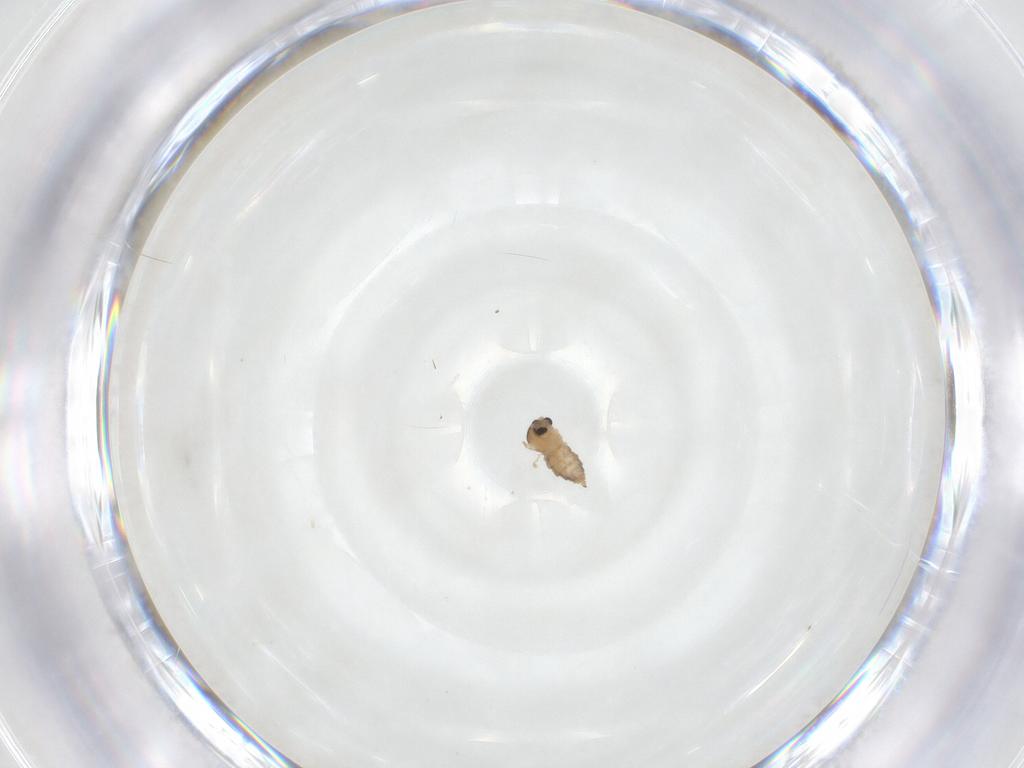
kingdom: Animalia
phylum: Arthropoda
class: Insecta
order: Diptera
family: Cecidomyiidae
